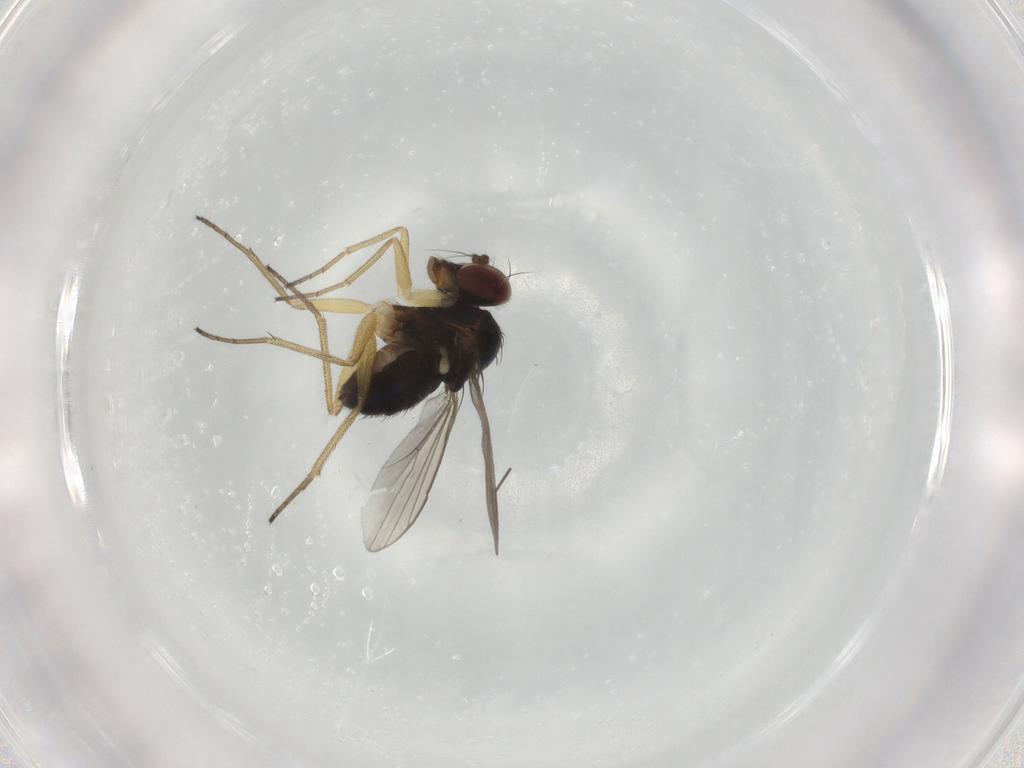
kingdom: Animalia
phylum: Arthropoda
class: Insecta
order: Diptera
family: Dolichopodidae
